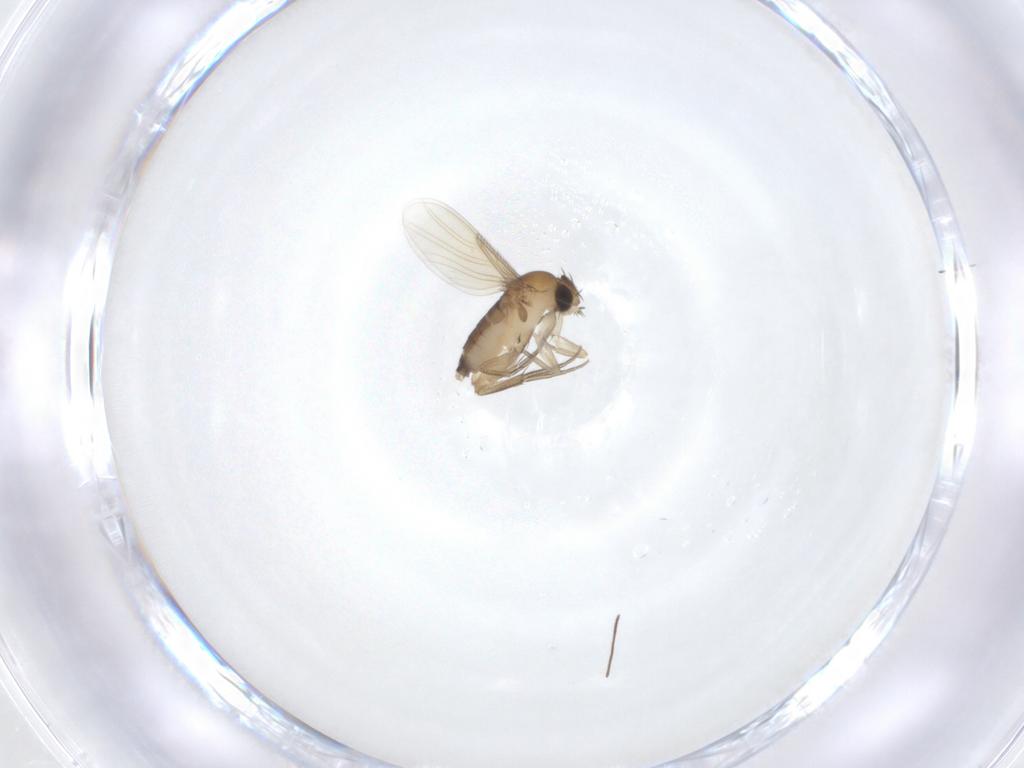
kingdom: Animalia
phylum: Arthropoda
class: Insecta
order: Diptera
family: Phoridae
